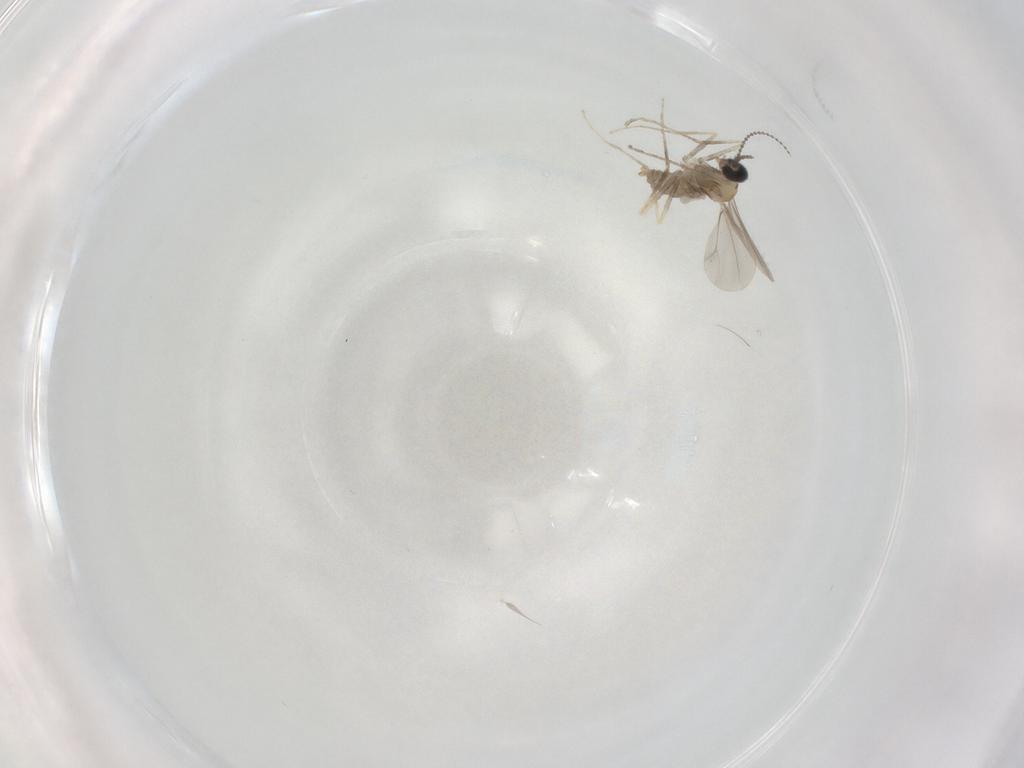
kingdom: Animalia
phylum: Arthropoda
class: Insecta
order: Diptera
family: Cecidomyiidae
